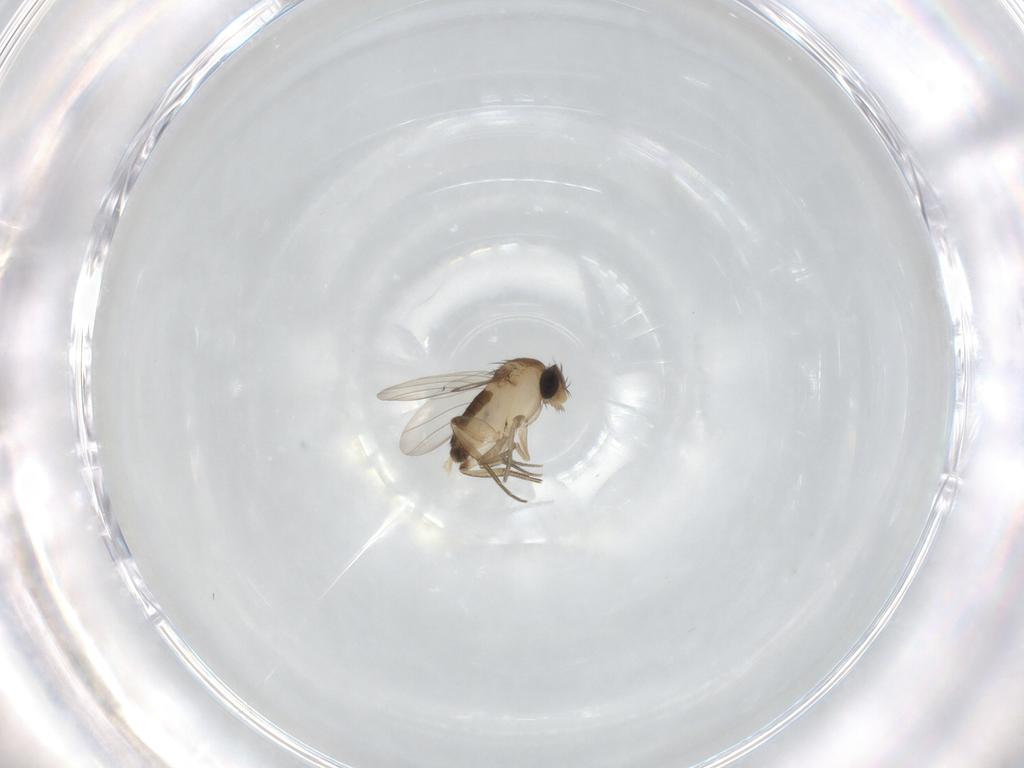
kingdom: Animalia
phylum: Arthropoda
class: Insecta
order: Diptera
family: Phoridae
